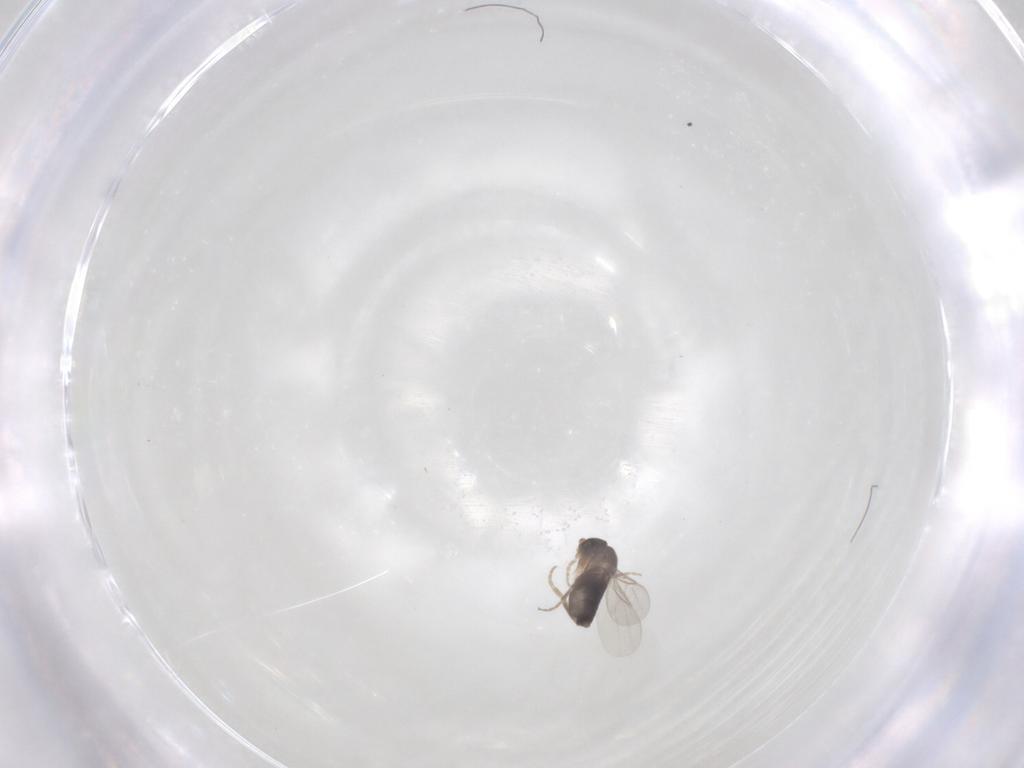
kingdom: Animalia
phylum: Arthropoda
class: Insecta
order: Diptera
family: Phoridae
